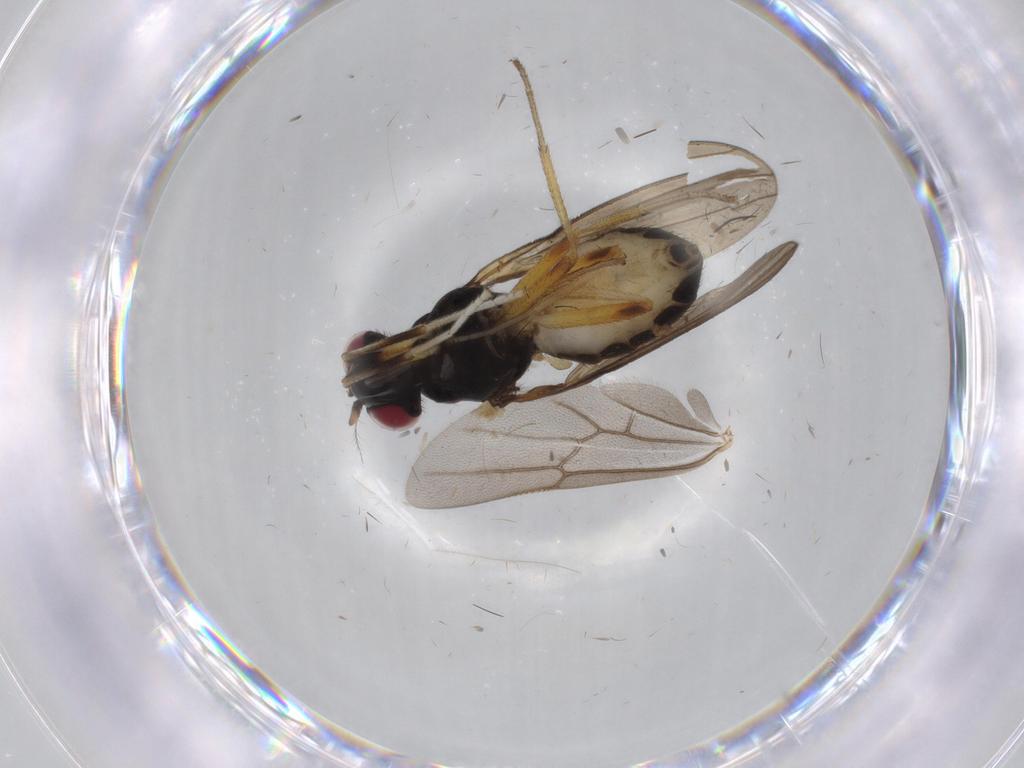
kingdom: Animalia
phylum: Arthropoda
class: Insecta
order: Diptera
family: Lauxaniidae
